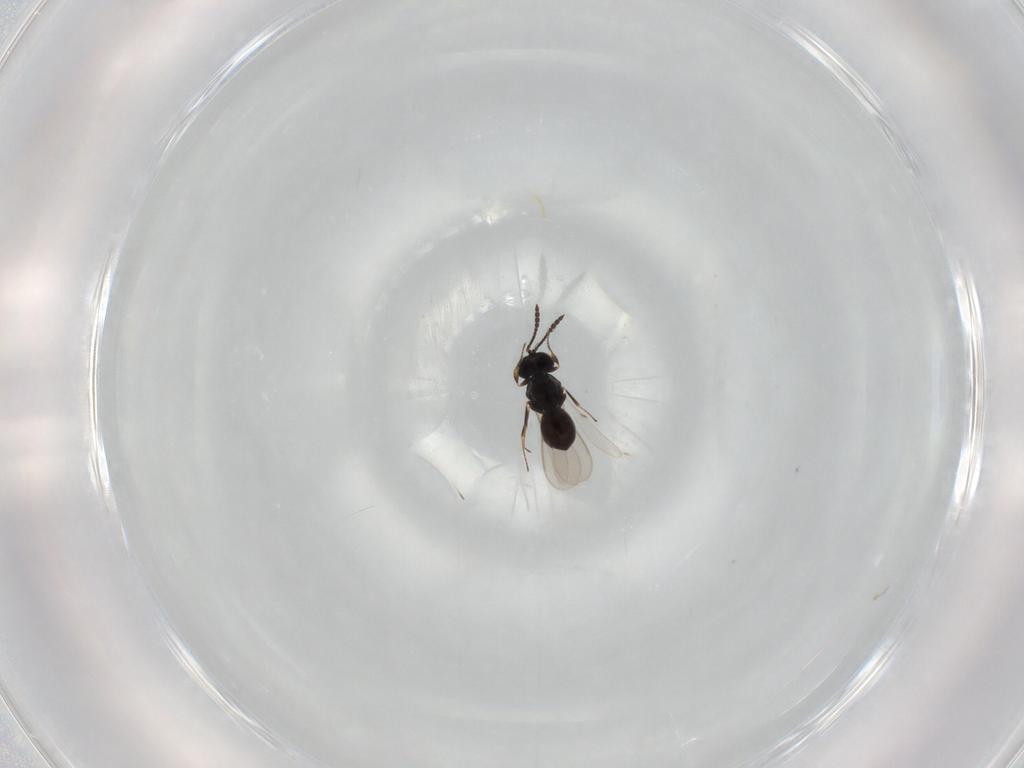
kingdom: Animalia
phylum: Arthropoda
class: Insecta
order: Hymenoptera
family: Scelionidae
